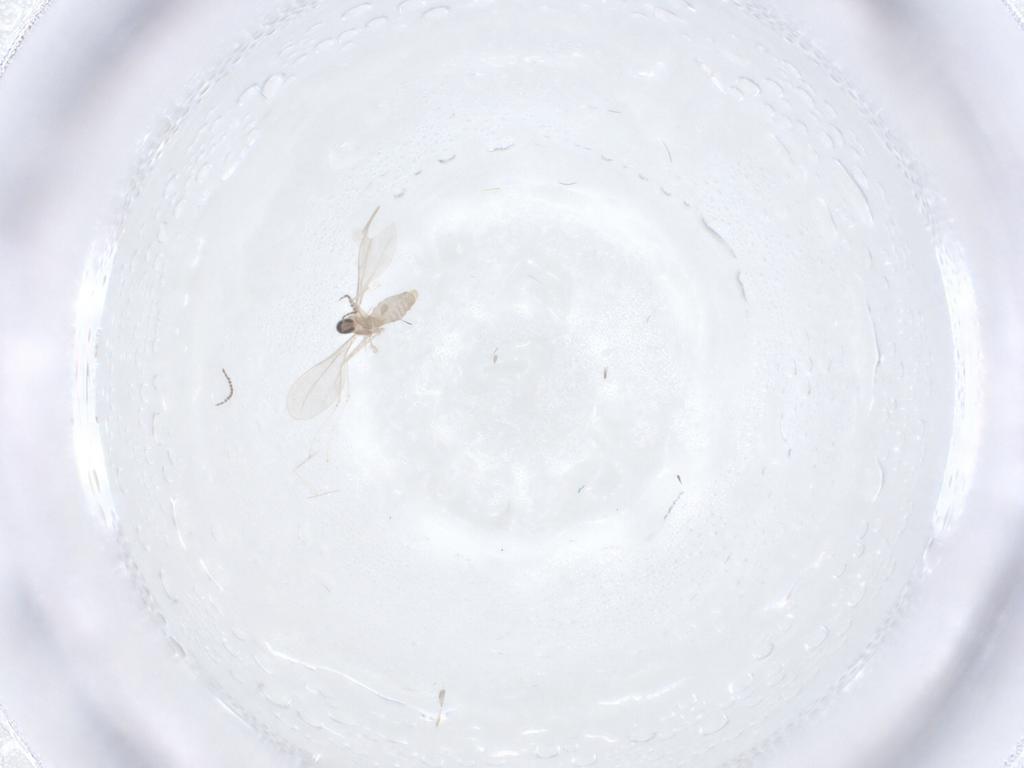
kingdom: Animalia
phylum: Arthropoda
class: Insecta
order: Diptera
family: Cecidomyiidae
